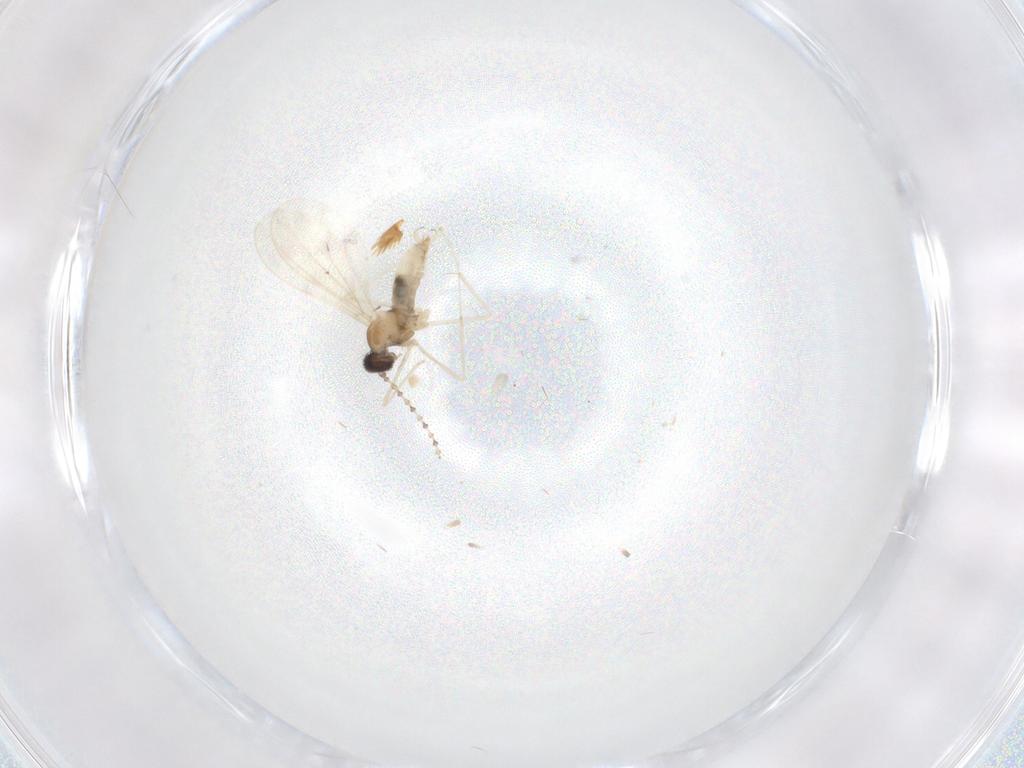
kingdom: Animalia
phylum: Arthropoda
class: Insecta
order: Diptera
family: Cecidomyiidae
